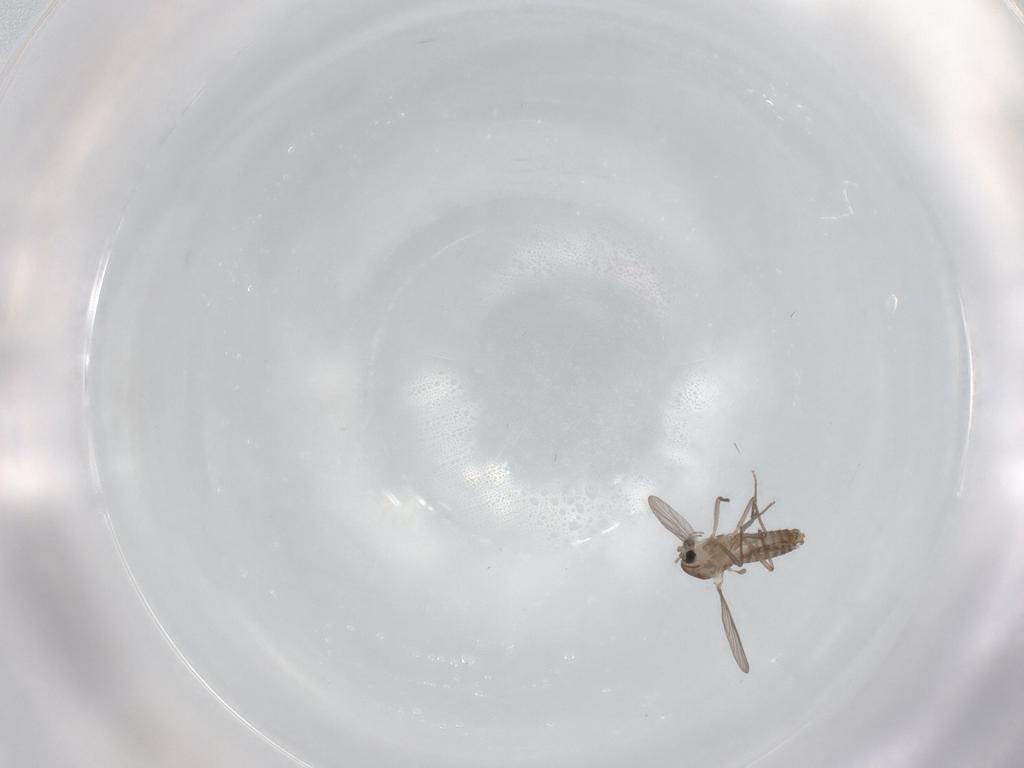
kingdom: Animalia
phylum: Arthropoda
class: Insecta
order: Diptera
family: Chironomidae
